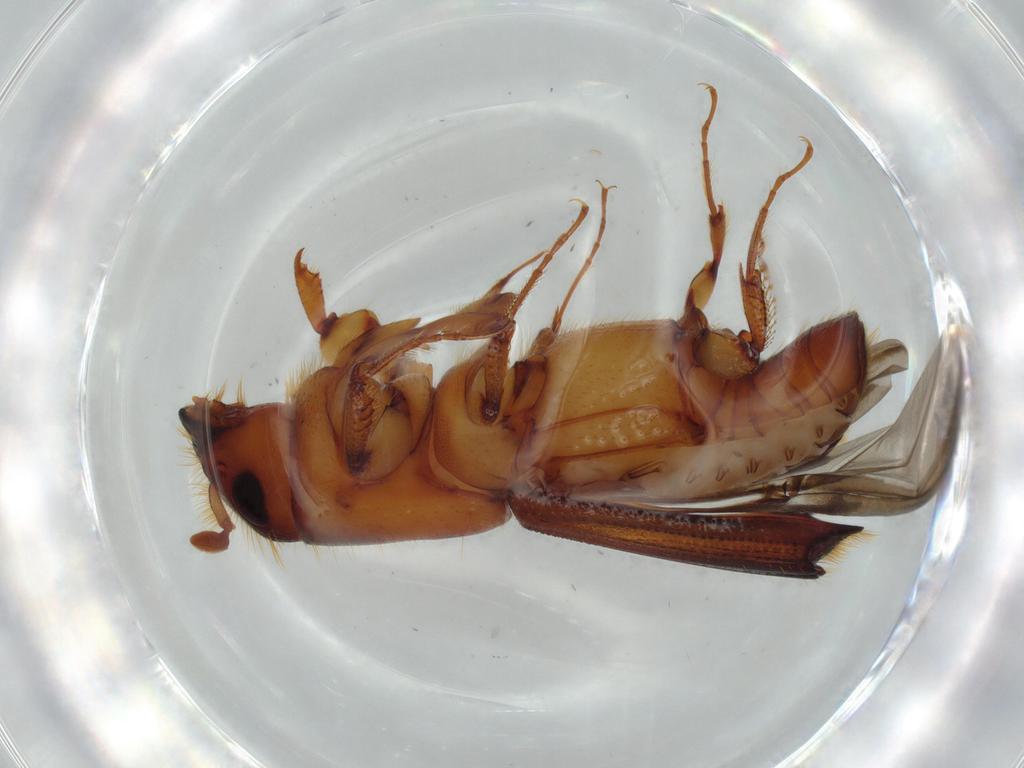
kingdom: Animalia
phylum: Arthropoda
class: Insecta
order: Coleoptera
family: Curculionidae
